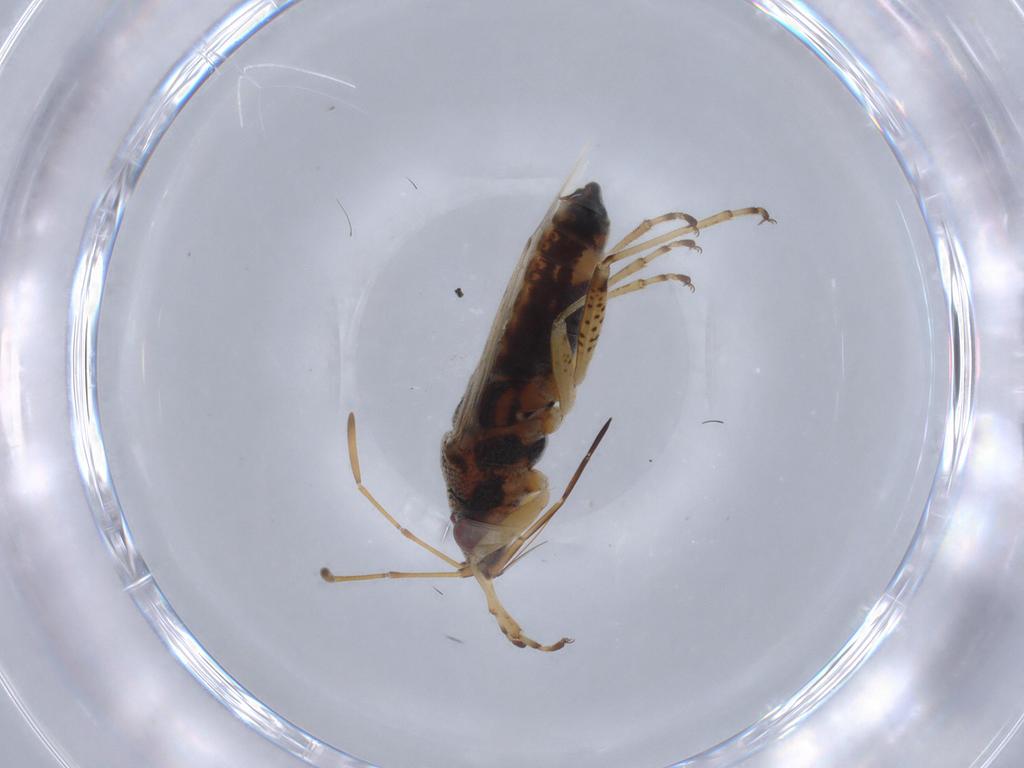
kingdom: Animalia
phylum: Arthropoda
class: Insecta
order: Hemiptera
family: Lygaeidae
